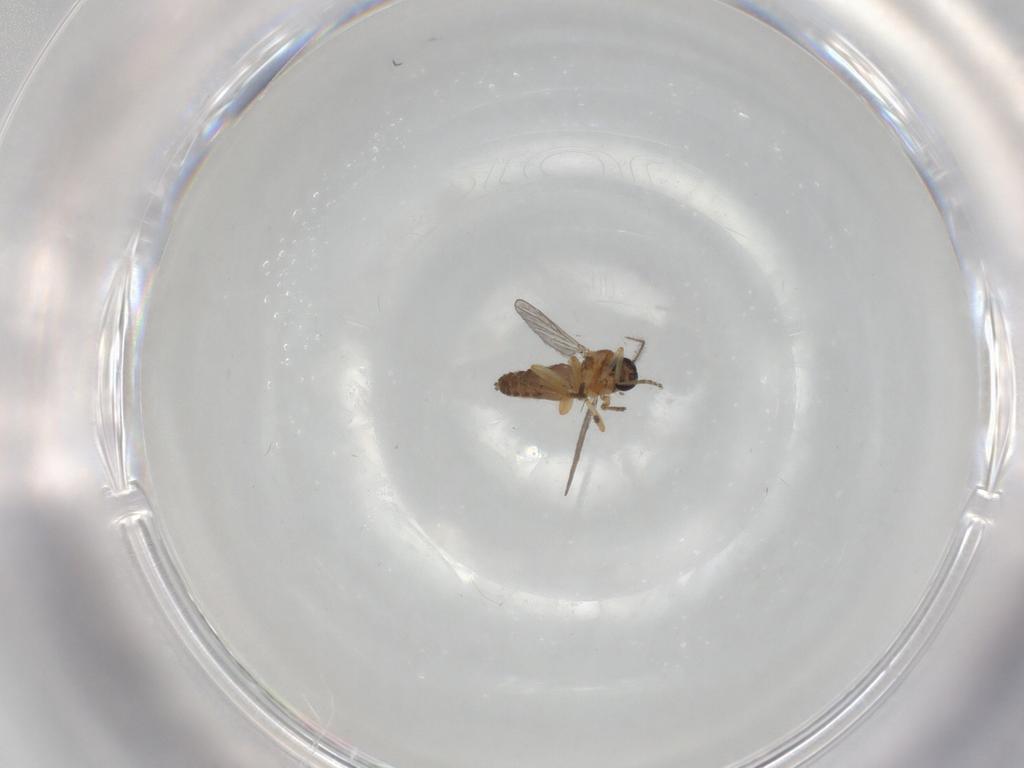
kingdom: Animalia
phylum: Arthropoda
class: Insecta
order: Diptera
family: Ceratopogonidae
